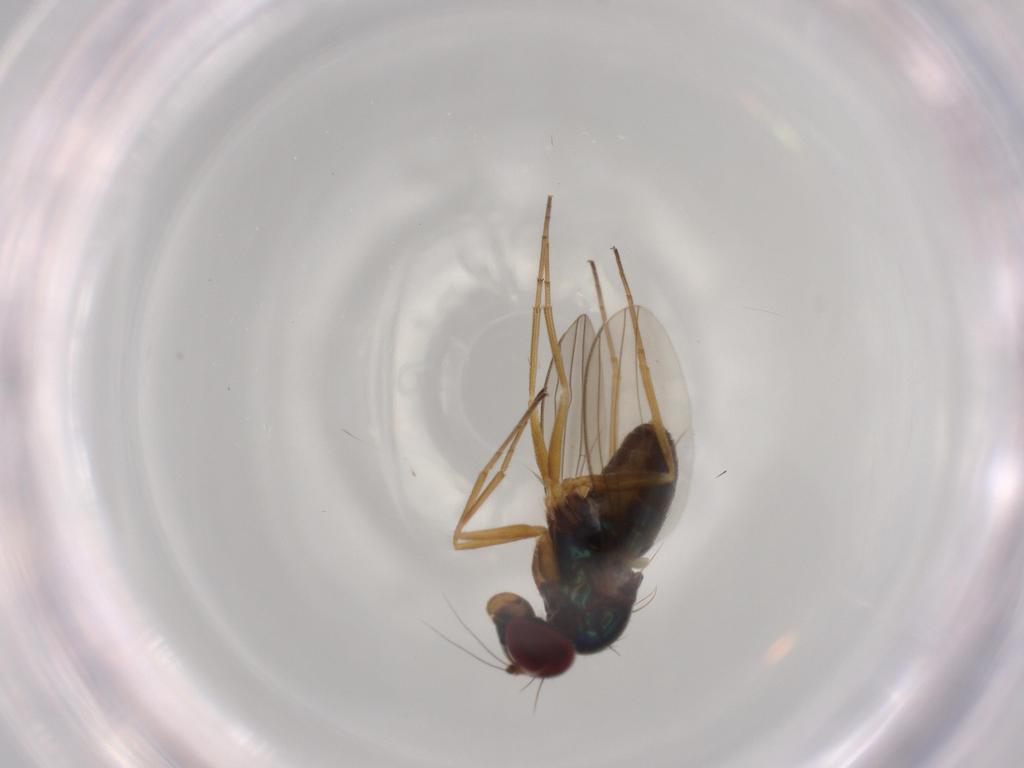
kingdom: Animalia
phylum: Arthropoda
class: Insecta
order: Diptera
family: Dolichopodidae
